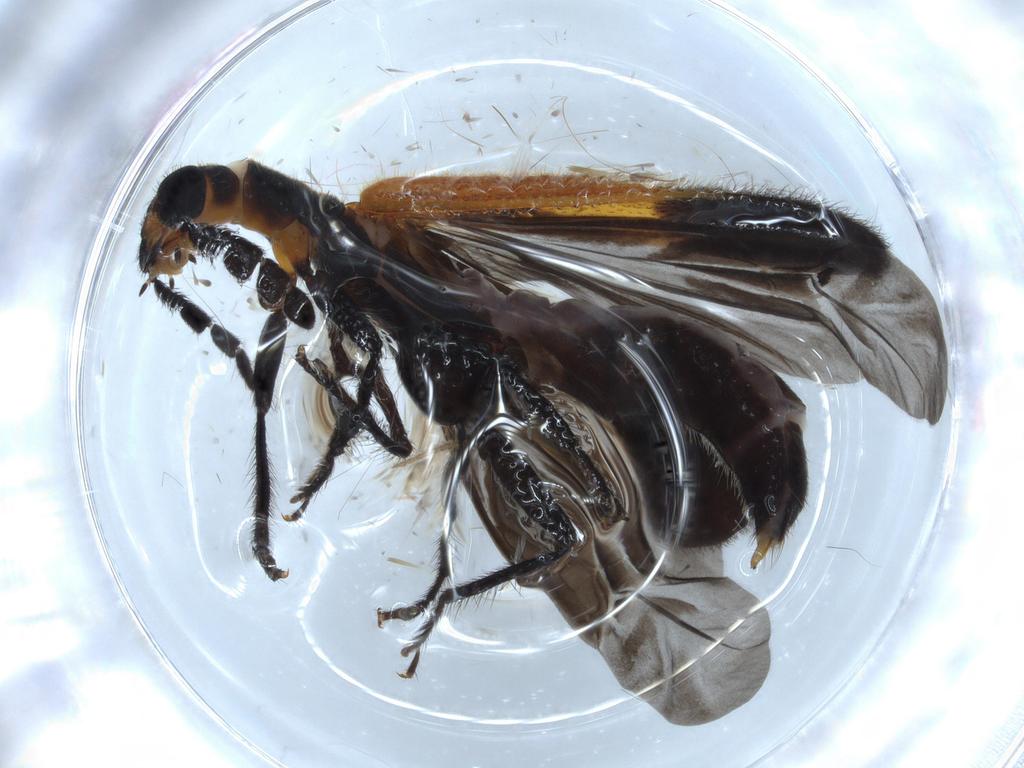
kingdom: Animalia
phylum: Arthropoda
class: Insecta
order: Coleoptera
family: Cleridae
